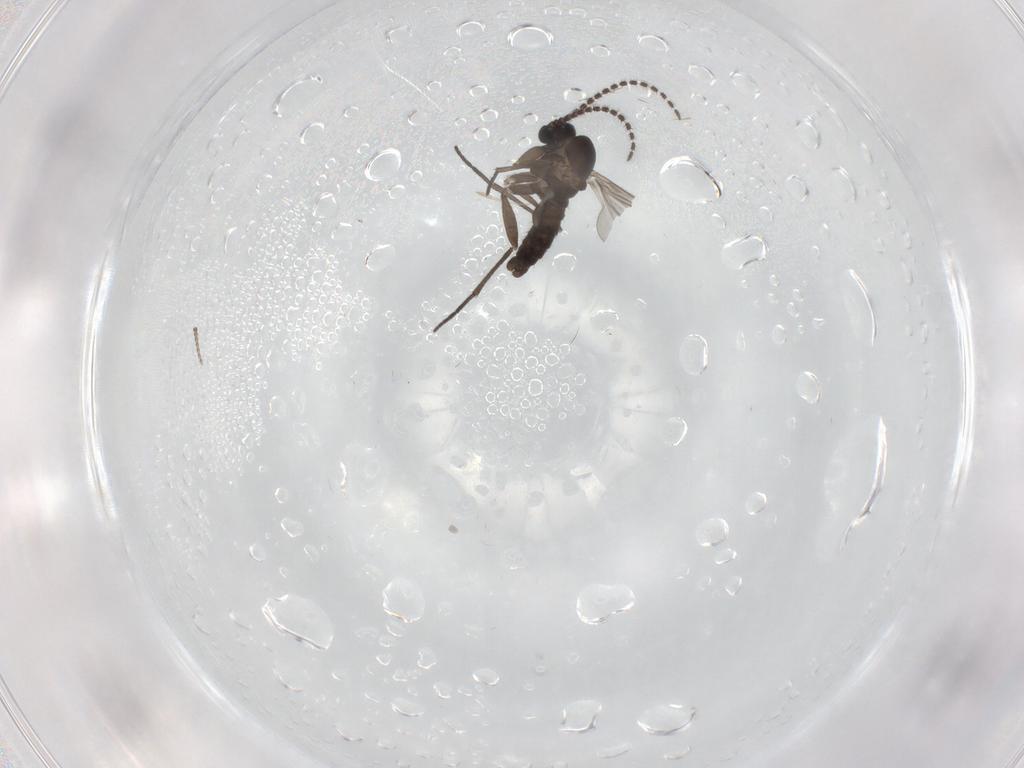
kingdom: Animalia
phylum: Arthropoda
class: Insecta
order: Diptera
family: Sciaridae
